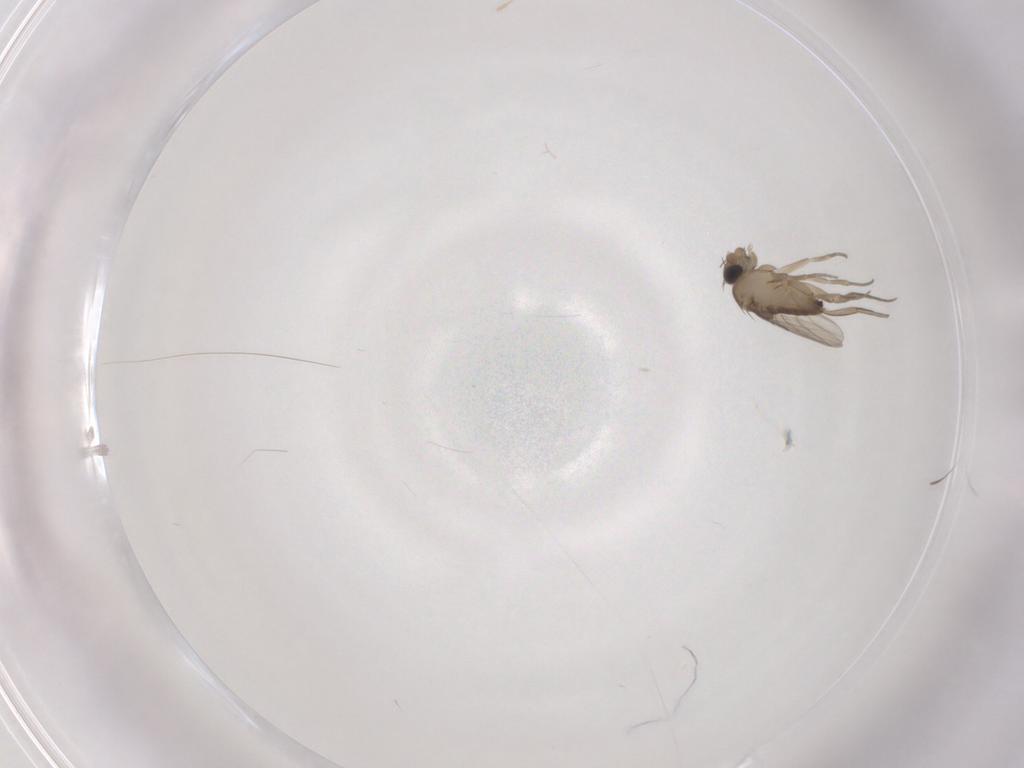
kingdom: Animalia
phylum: Arthropoda
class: Insecta
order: Diptera
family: Phoridae
